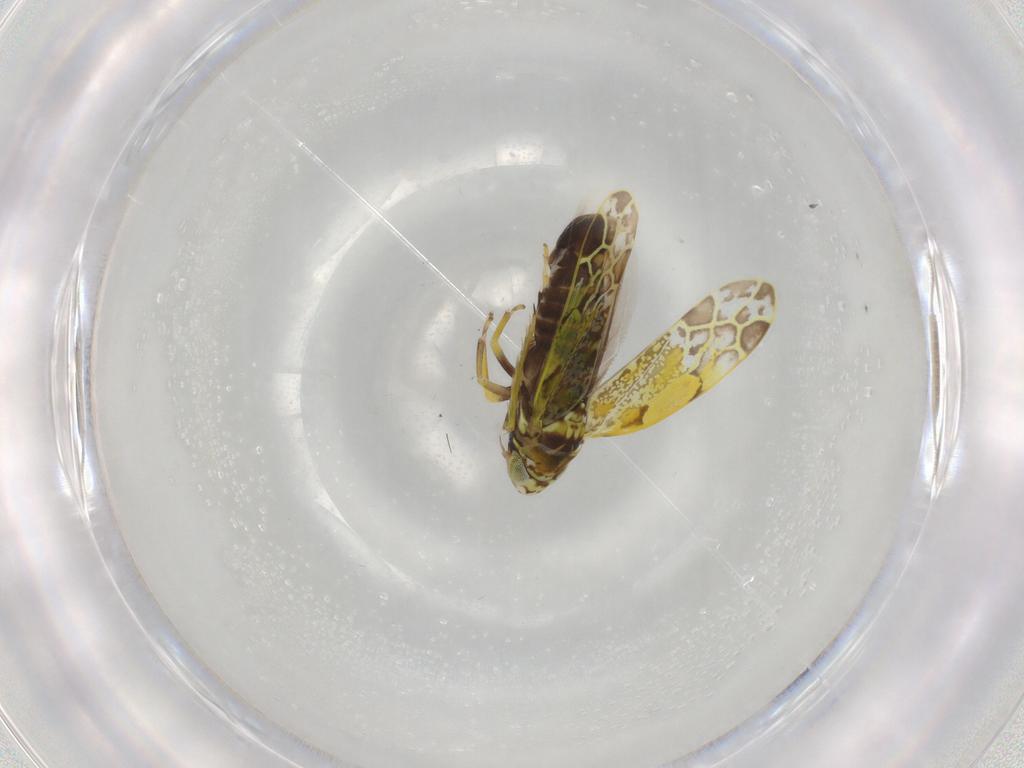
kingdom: Animalia
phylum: Arthropoda
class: Insecta
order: Hemiptera
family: Cicadellidae
